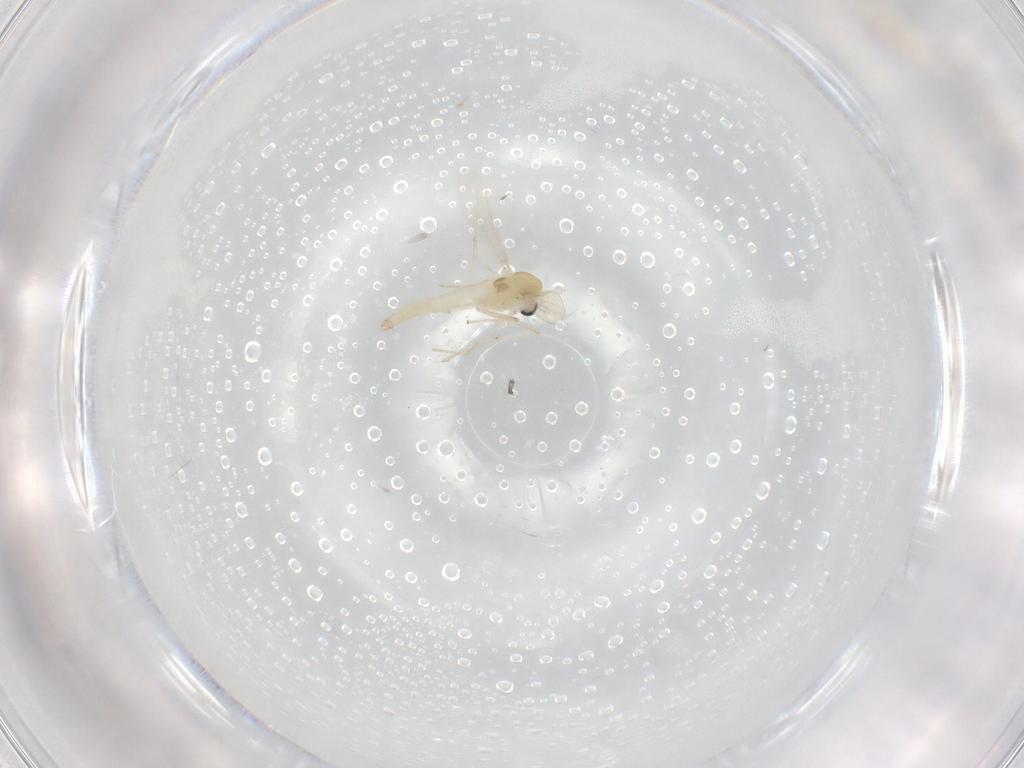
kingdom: Animalia
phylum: Arthropoda
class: Insecta
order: Diptera
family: Chironomidae
